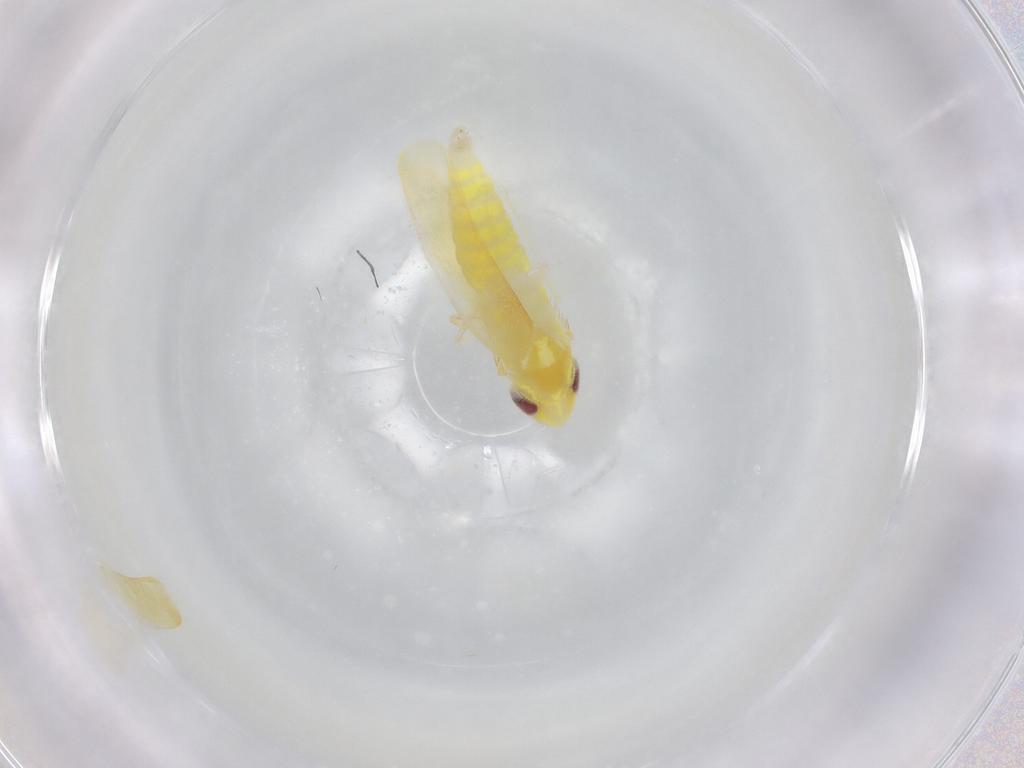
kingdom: Animalia
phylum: Arthropoda
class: Insecta
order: Hemiptera
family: Cicadellidae
